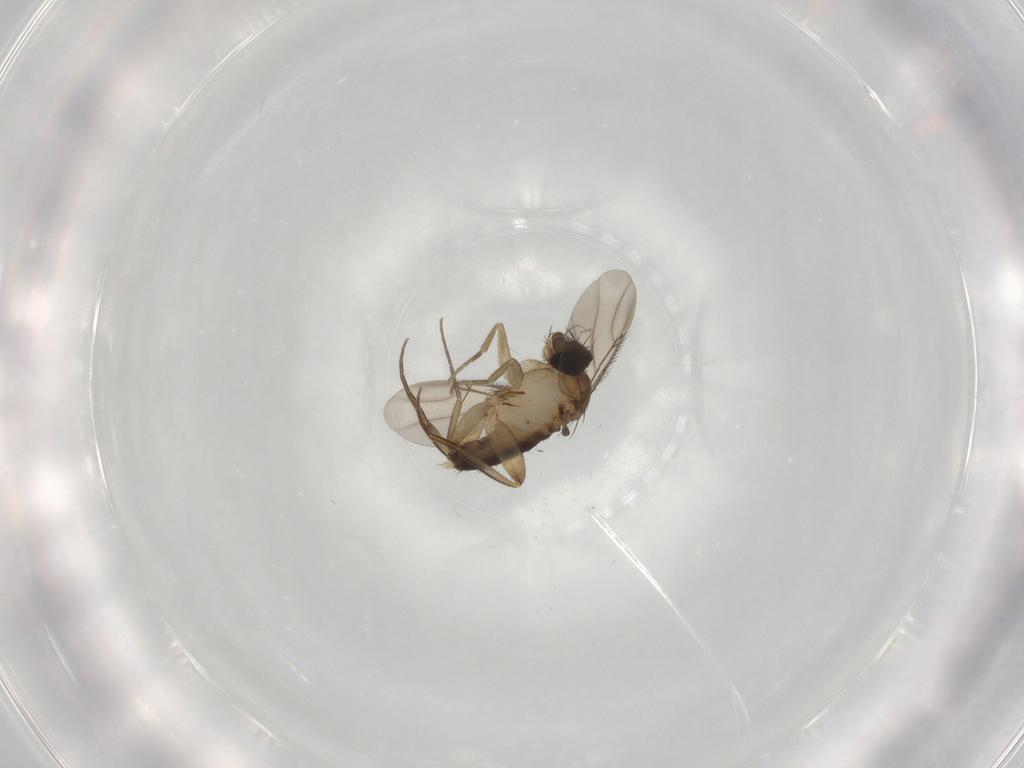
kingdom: Animalia
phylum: Arthropoda
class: Insecta
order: Diptera
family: Phoridae
